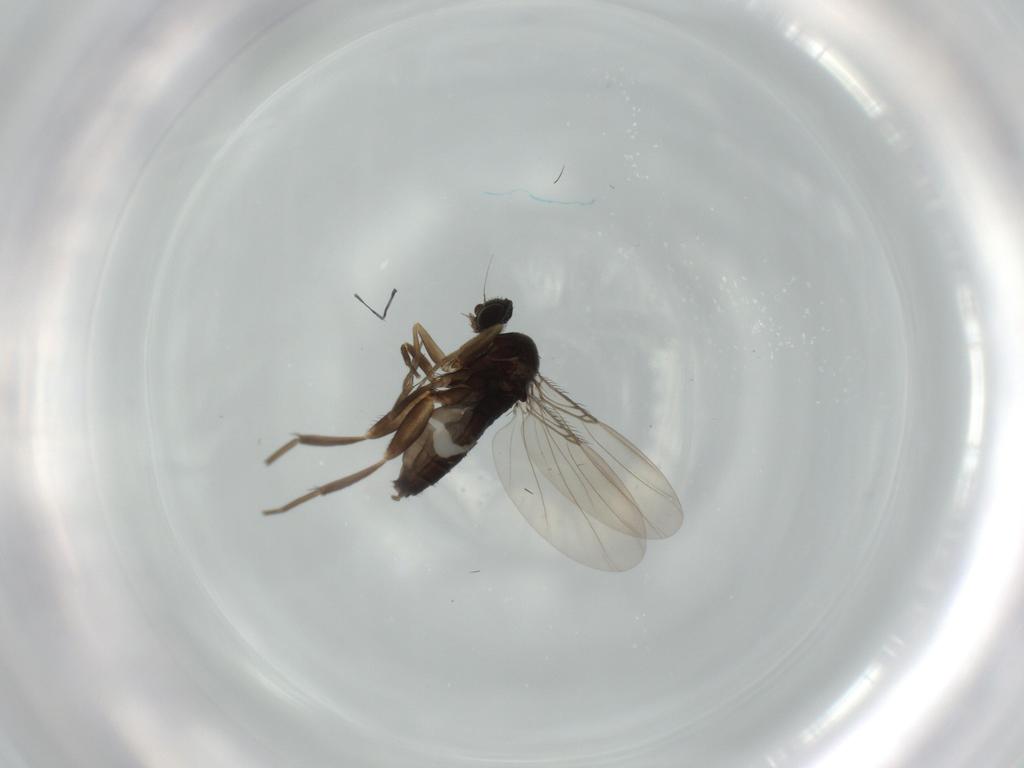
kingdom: Animalia
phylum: Arthropoda
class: Insecta
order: Diptera
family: Phoridae
